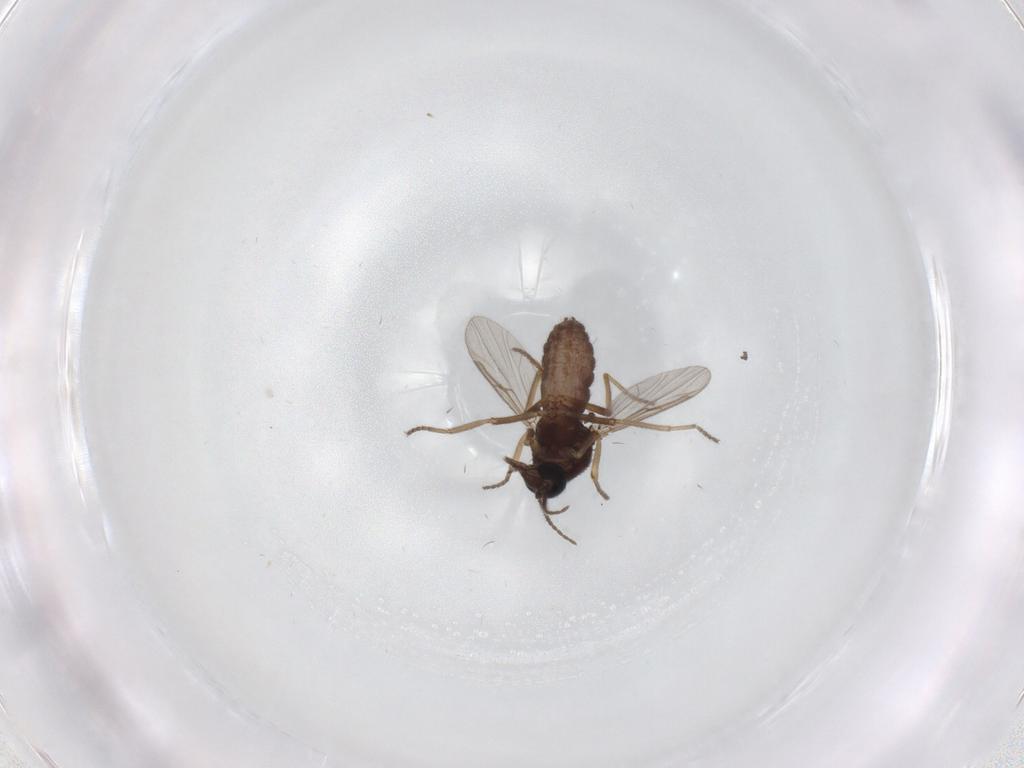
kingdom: Animalia
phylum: Arthropoda
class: Insecta
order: Diptera
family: Ceratopogonidae
